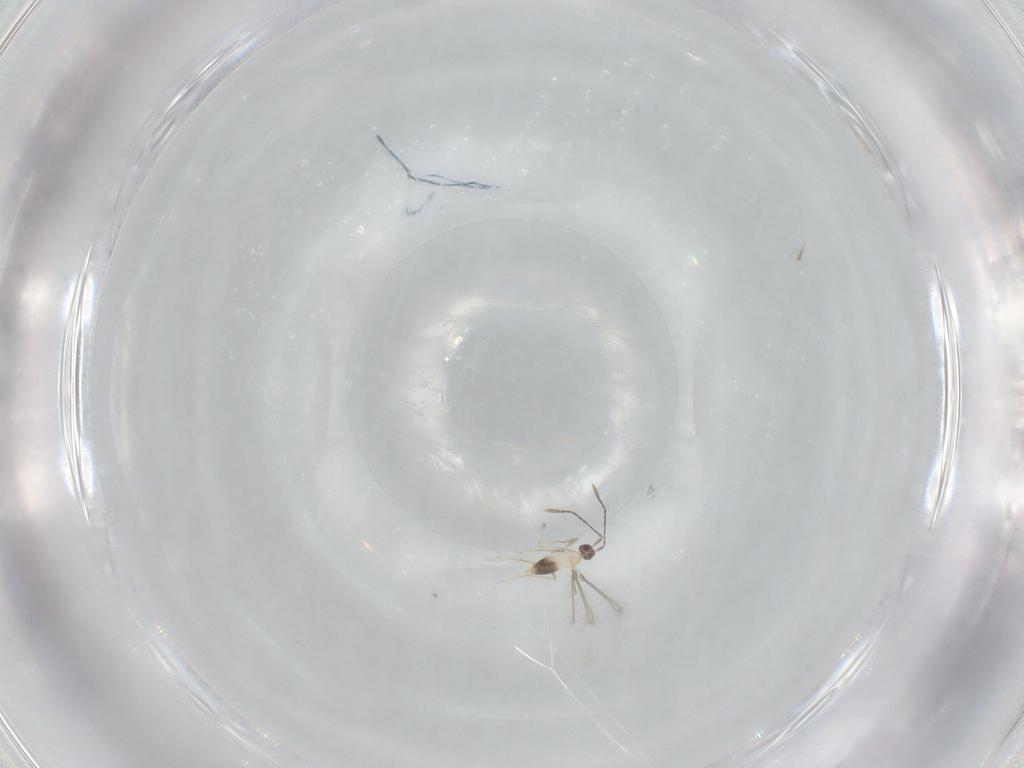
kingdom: Animalia
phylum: Arthropoda
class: Insecta
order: Hymenoptera
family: Mymaridae
